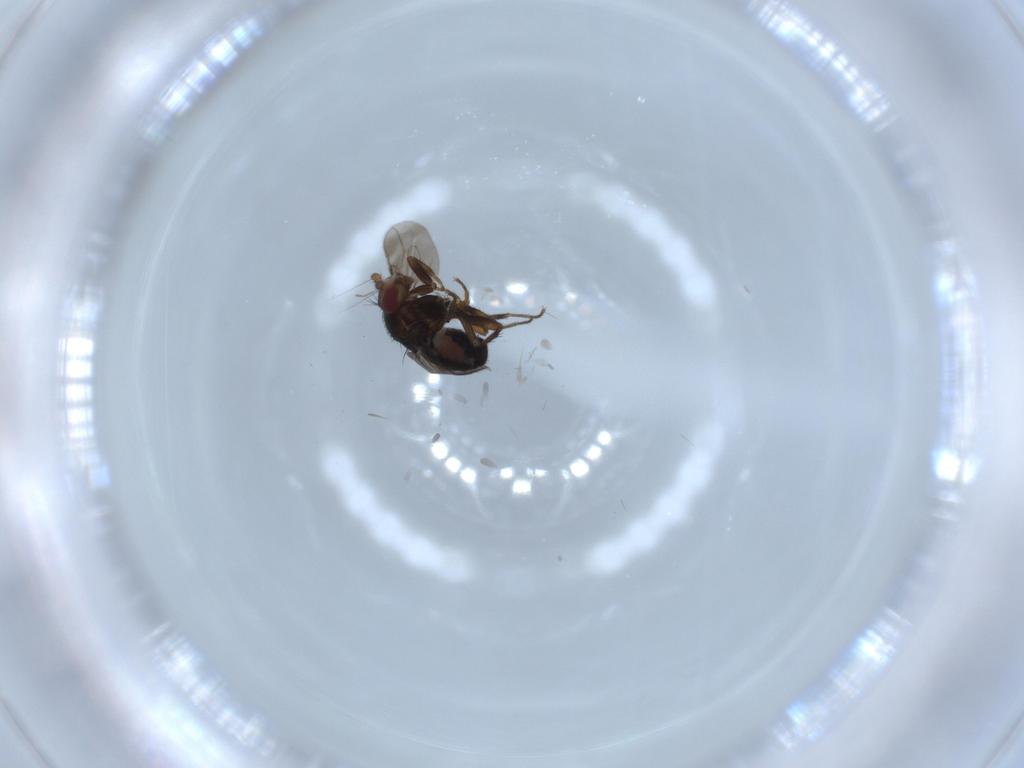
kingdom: Animalia
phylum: Arthropoda
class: Insecta
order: Diptera
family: Sphaeroceridae
